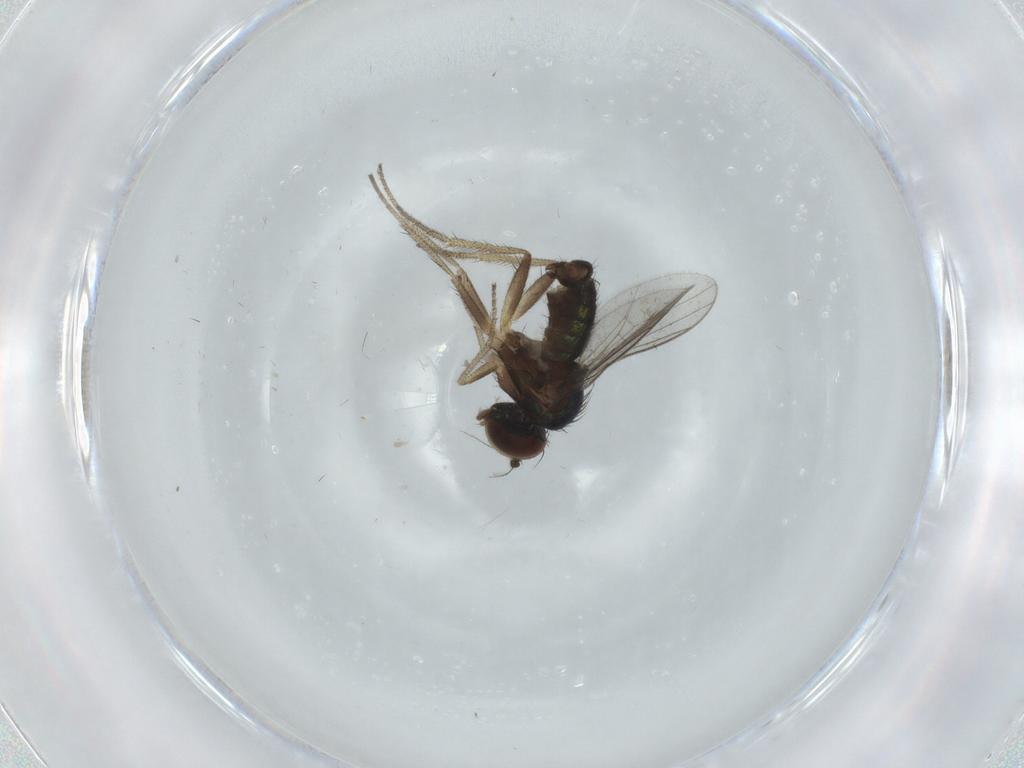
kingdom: Animalia
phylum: Arthropoda
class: Insecta
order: Diptera
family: Dolichopodidae
